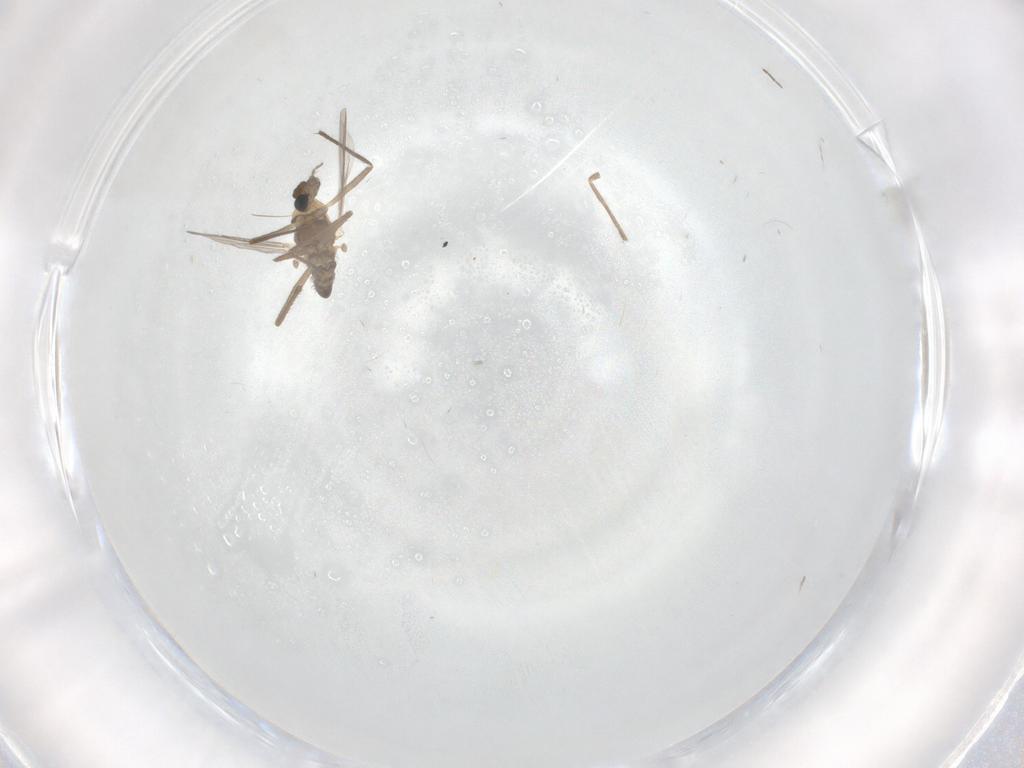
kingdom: Animalia
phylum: Arthropoda
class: Insecta
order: Diptera
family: Chironomidae
